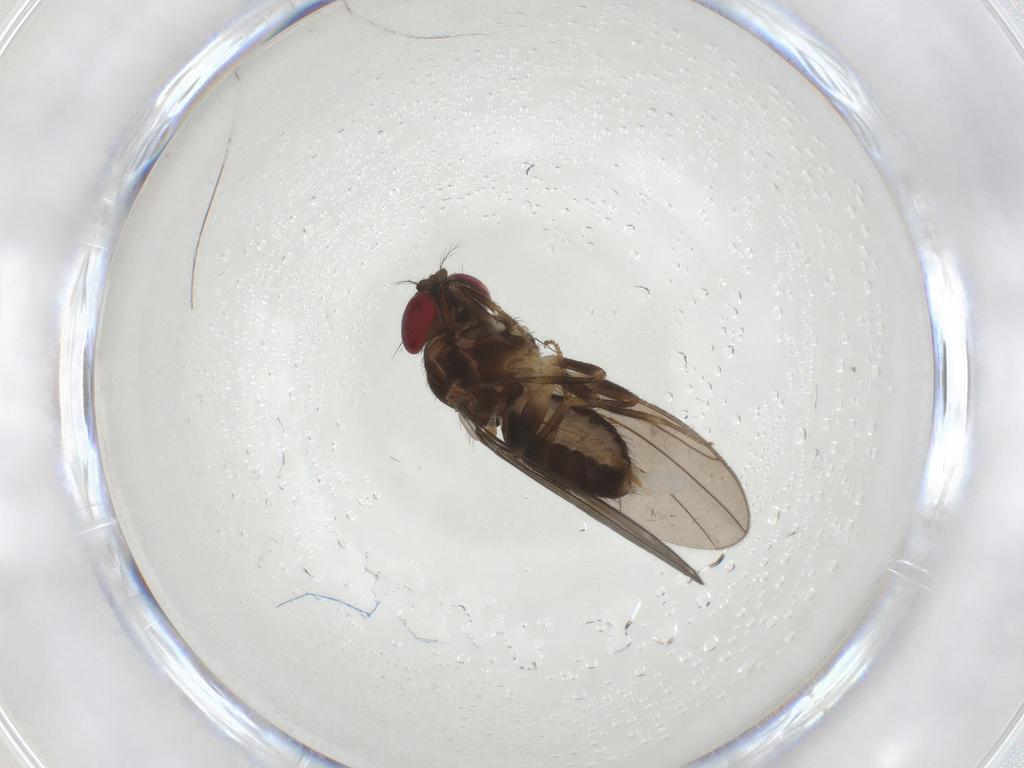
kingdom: Animalia
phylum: Arthropoda
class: Insecta
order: Diptera
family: Drosophilidae
